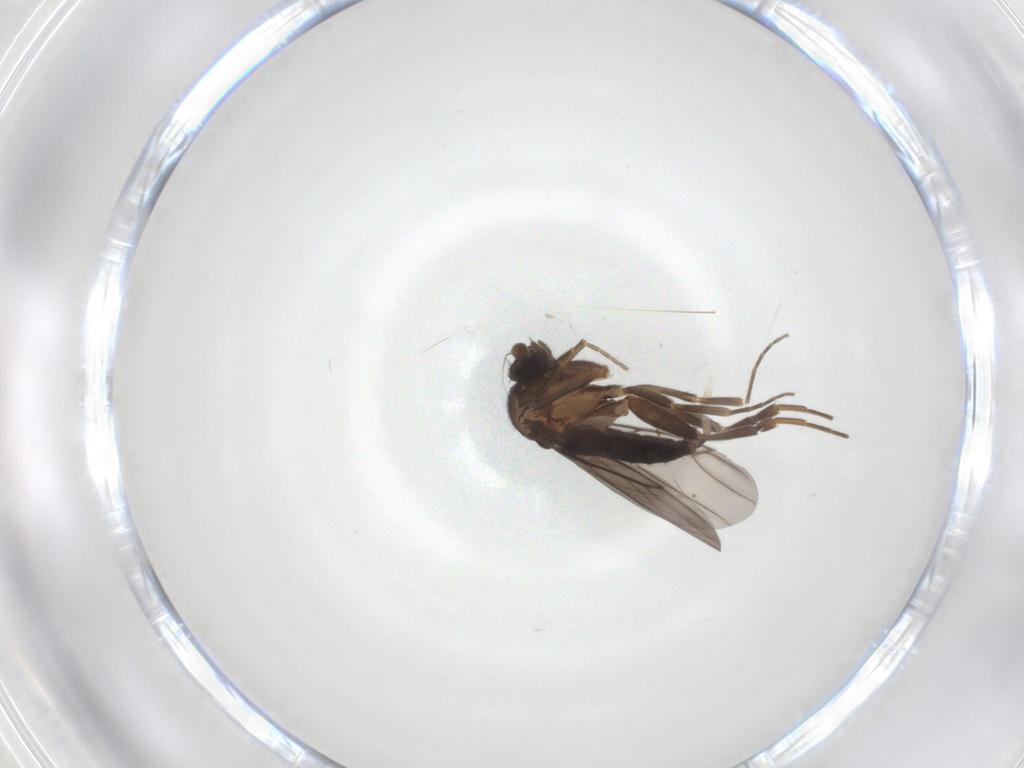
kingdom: Animalia
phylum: Arthropoda
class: Insecta
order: Diptera
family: Phoridae
